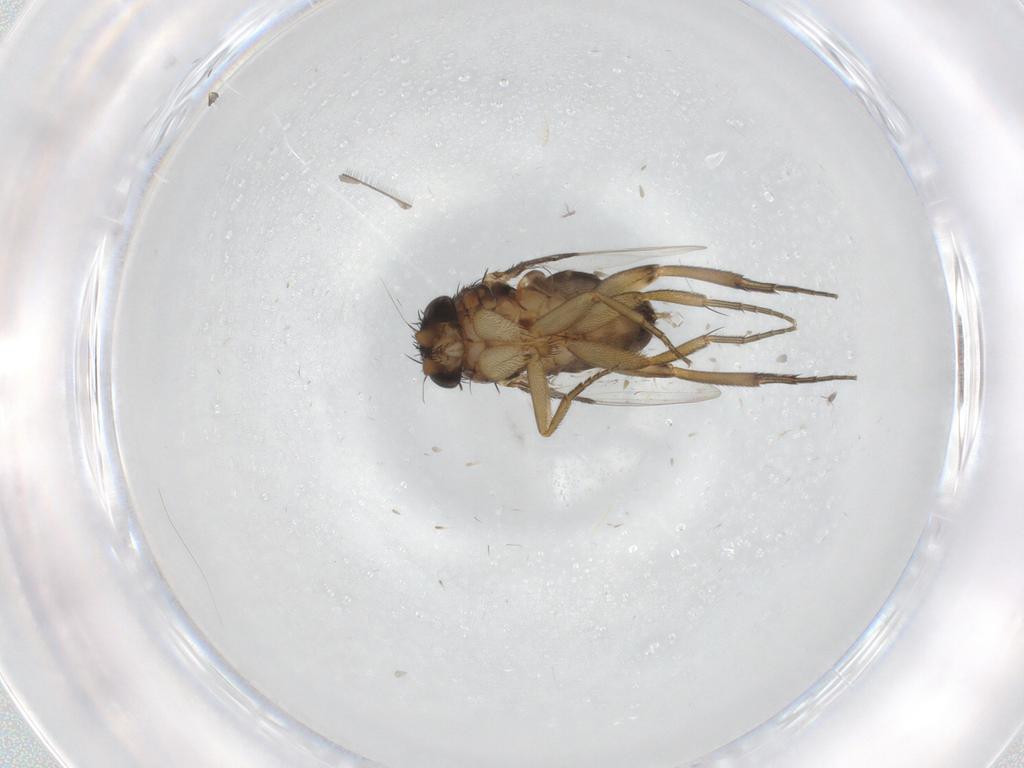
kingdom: Animalia
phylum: Arthropoda
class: Insecta
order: Diptera
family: Phoridae
